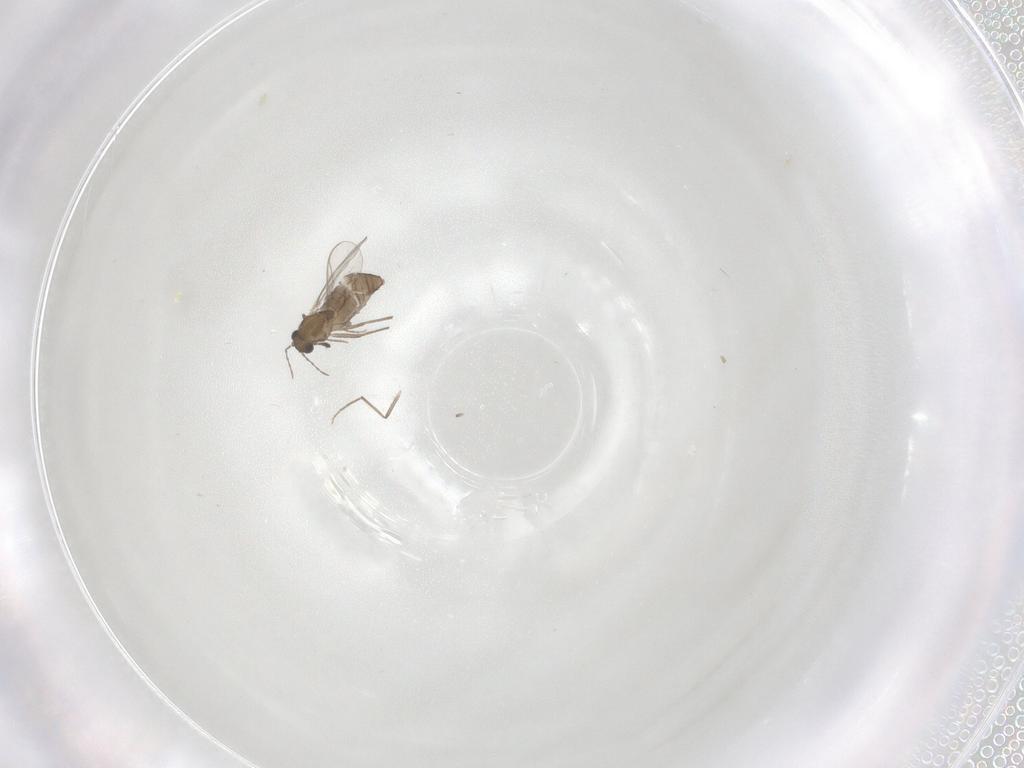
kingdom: Animalia
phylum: Arthropoda
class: Insecta
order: Diptera
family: Chironomidae
